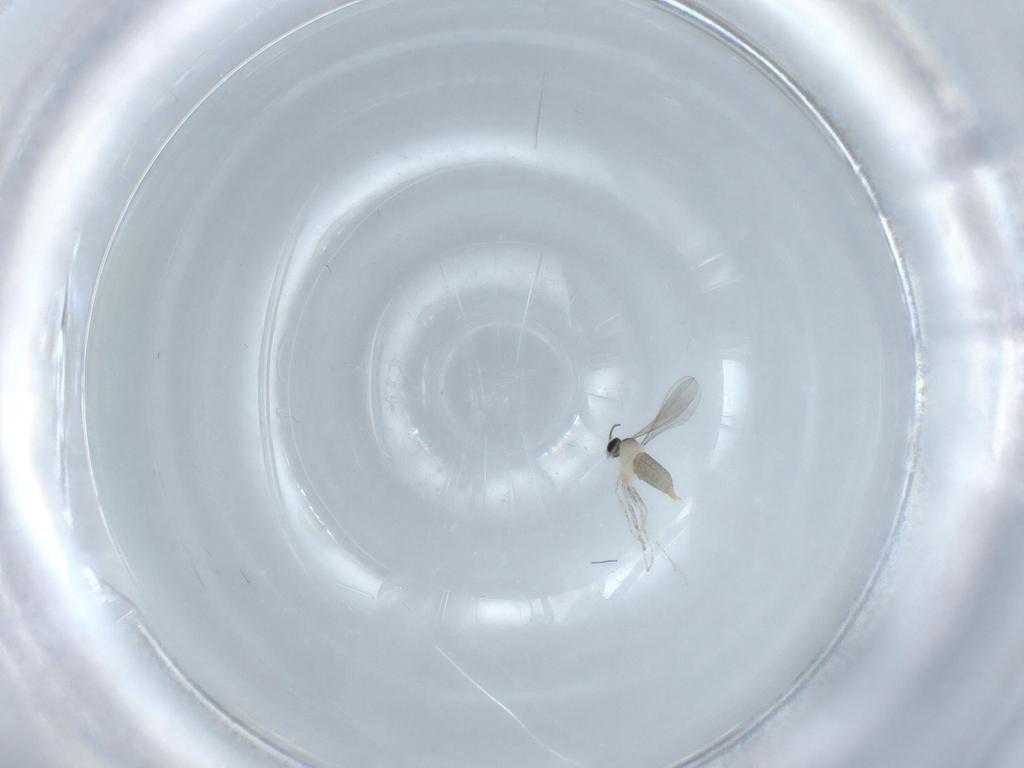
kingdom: Animalia
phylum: Arthropoda
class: Insecta
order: Diptera
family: Cecidomyiidae
